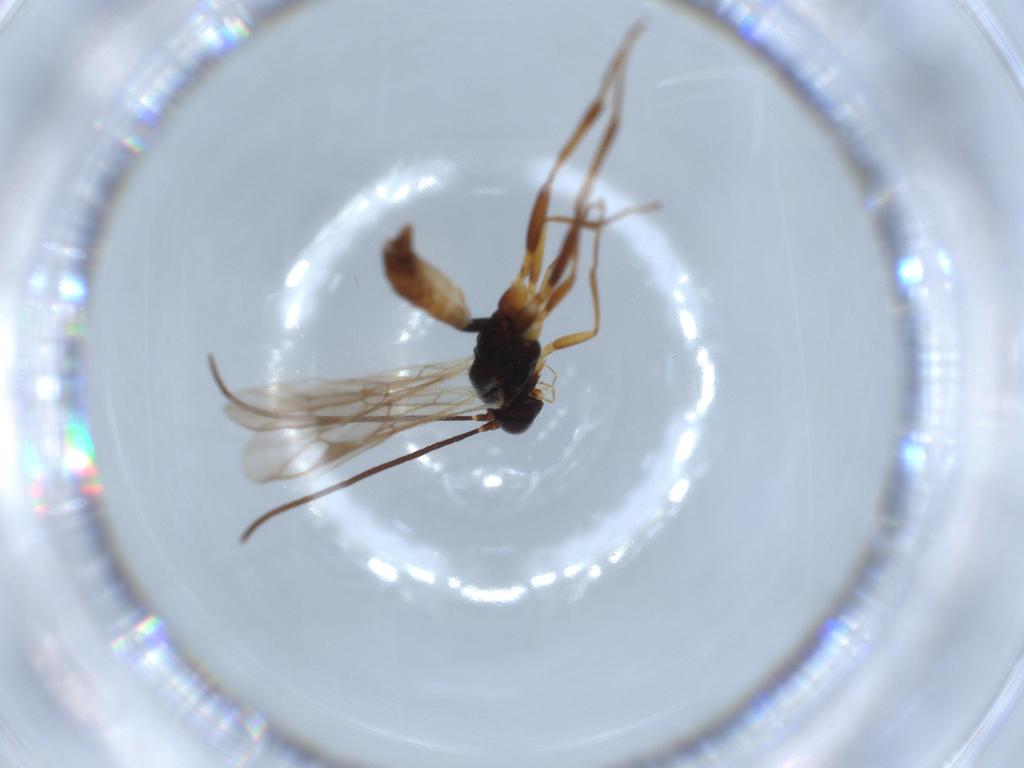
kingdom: Animalia
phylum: Arthropoda
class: Insecta
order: Hymenoptera
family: Ichneumonidae
